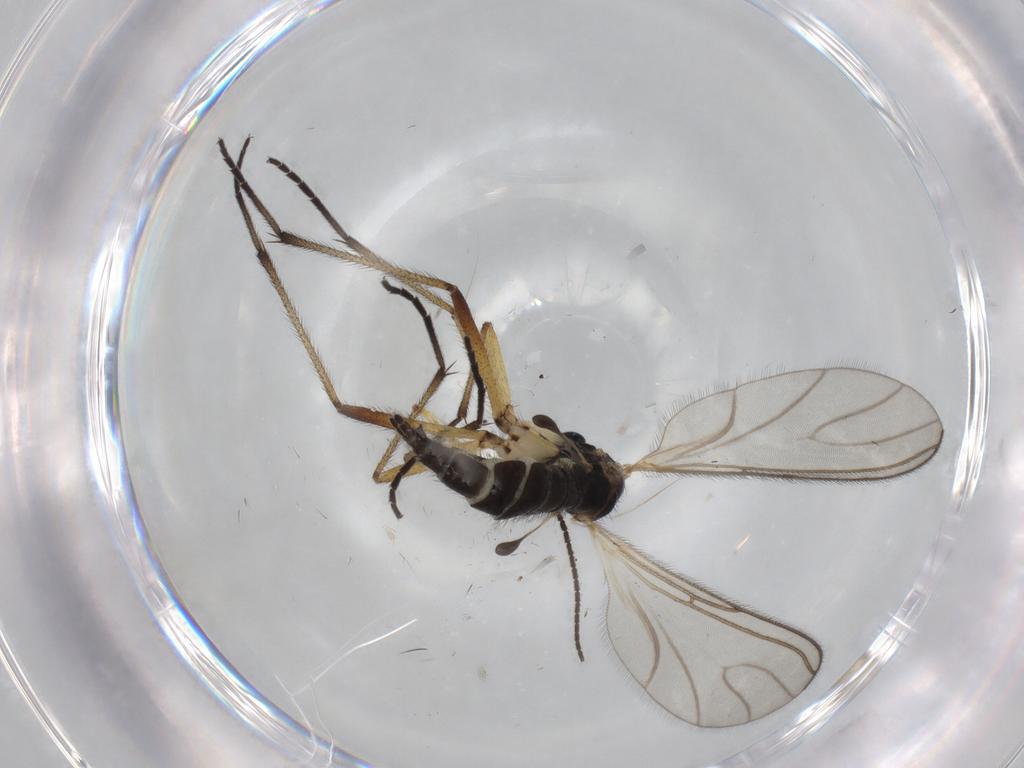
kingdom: Animalia
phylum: Arthropoda
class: Insecta
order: Diptera
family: Sciaridae
